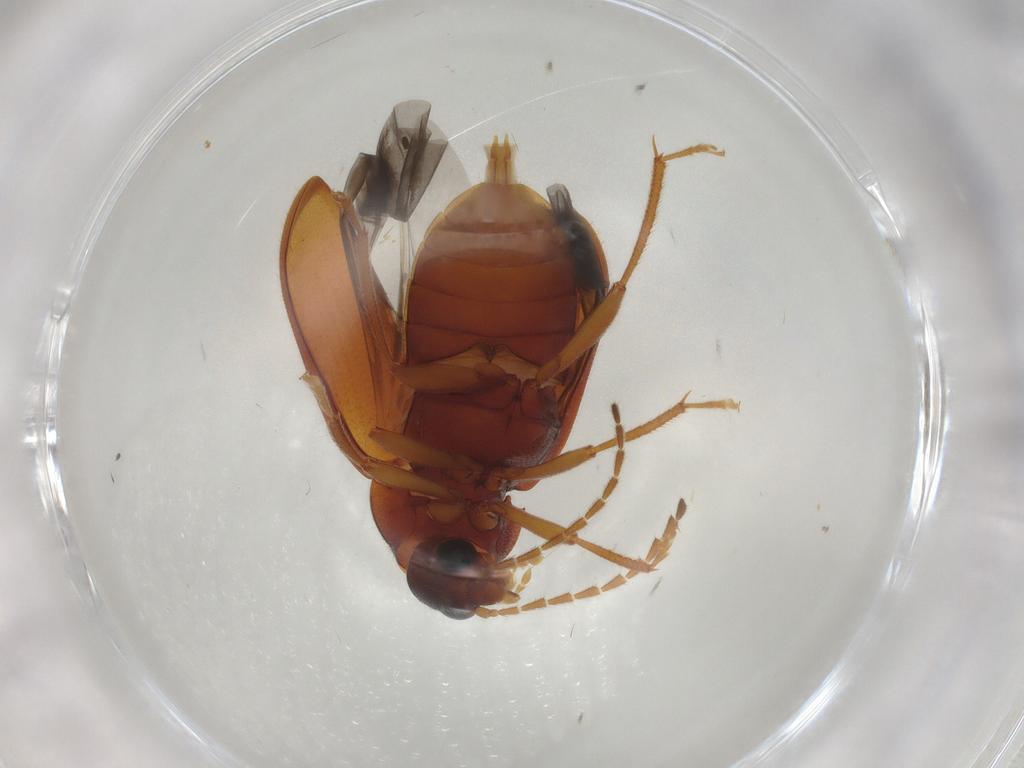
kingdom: Animalia
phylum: Arthropoda
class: Insecta
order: Coleoptera
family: Ptilodactylidae
